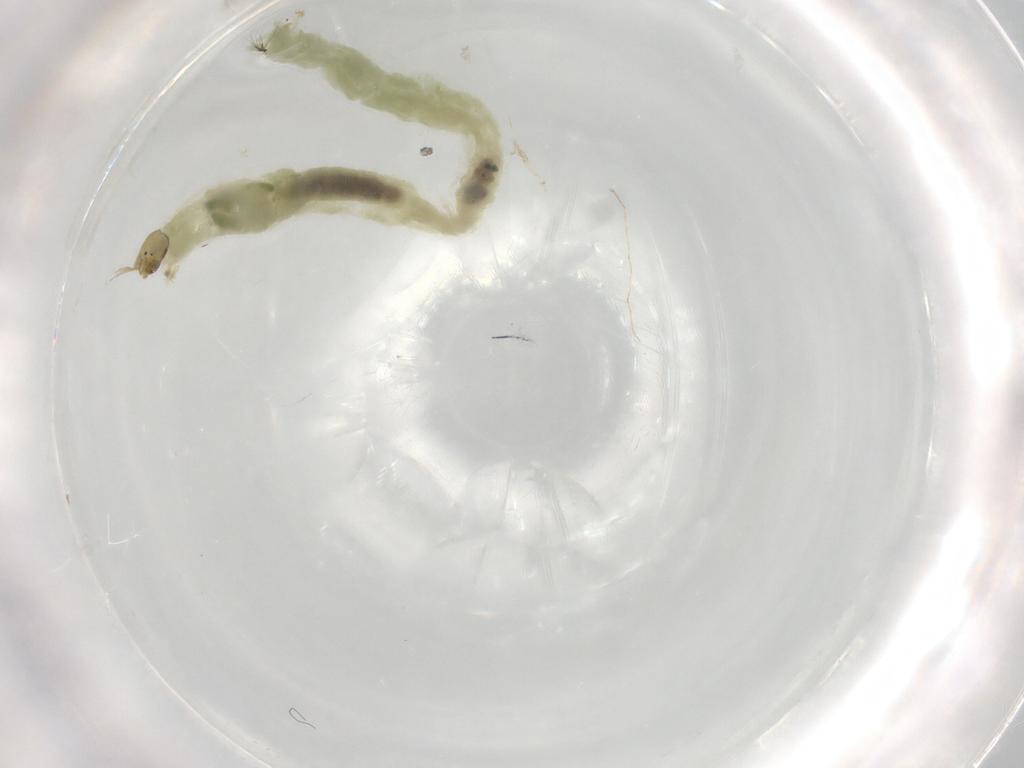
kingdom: Animalia
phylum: Arthropoda
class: Insecta
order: Diptera
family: Chironomidae
